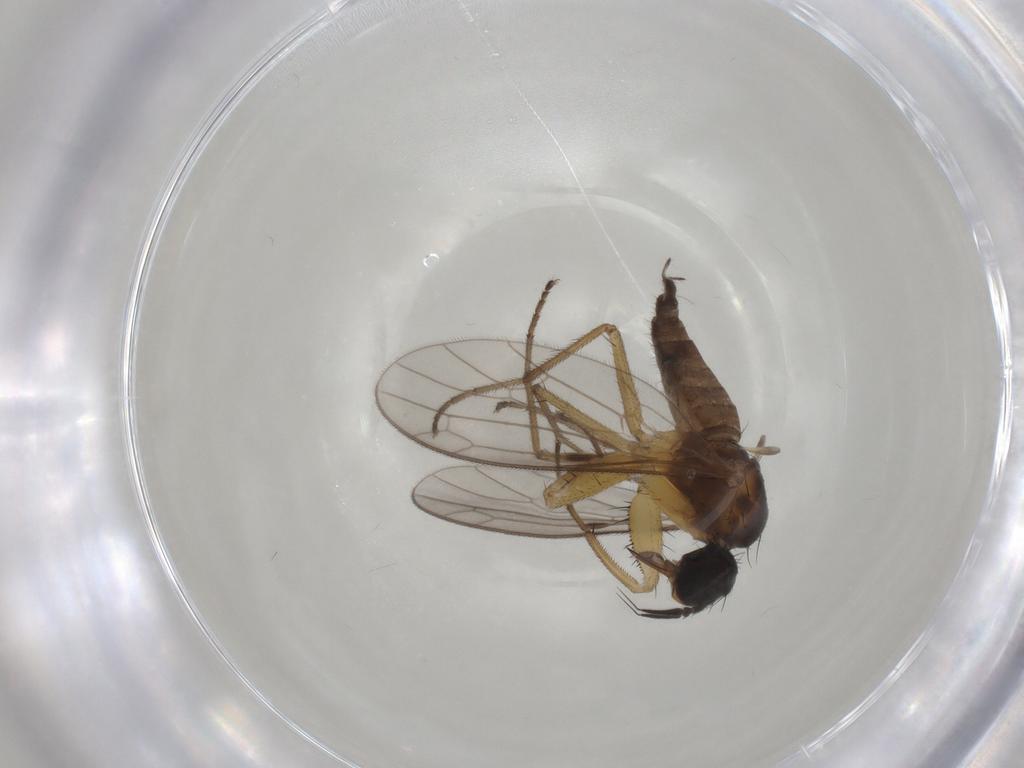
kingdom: Animalia
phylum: Arthropoda
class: Insecta
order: Diptera
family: Empididae
